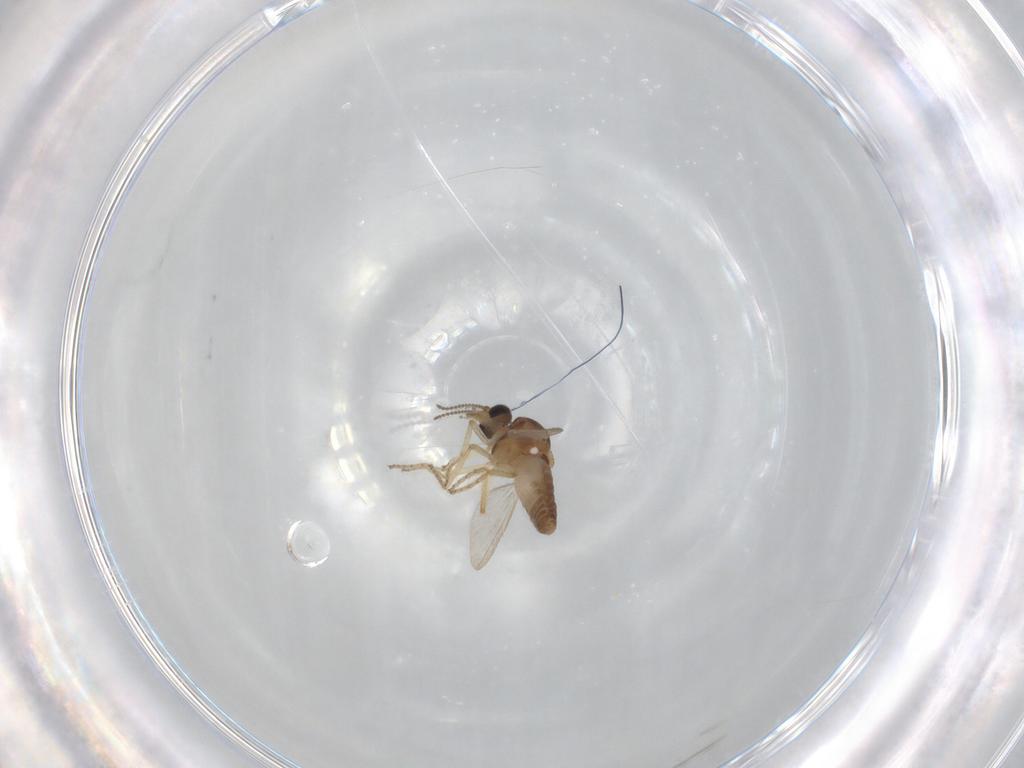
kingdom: Animalia
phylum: Arthropoda
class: Insecta
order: Diptera
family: Ceratopogonidae
